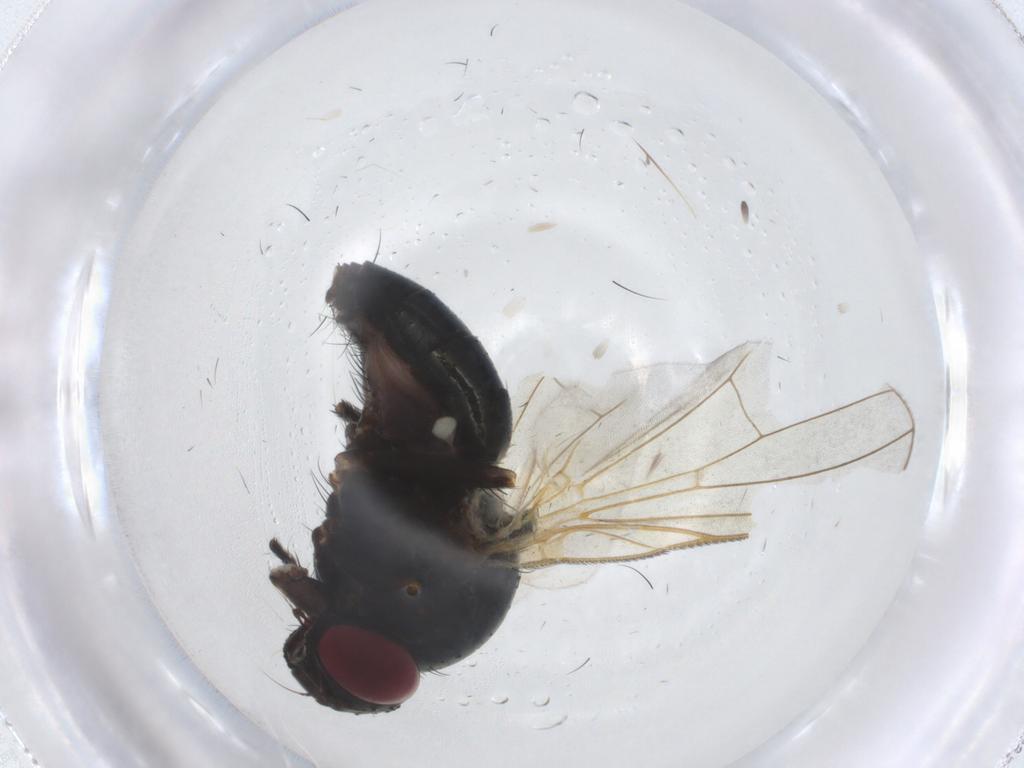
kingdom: Animalia
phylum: Arthropoda
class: Insecta
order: Diptera
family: Fanniidae
